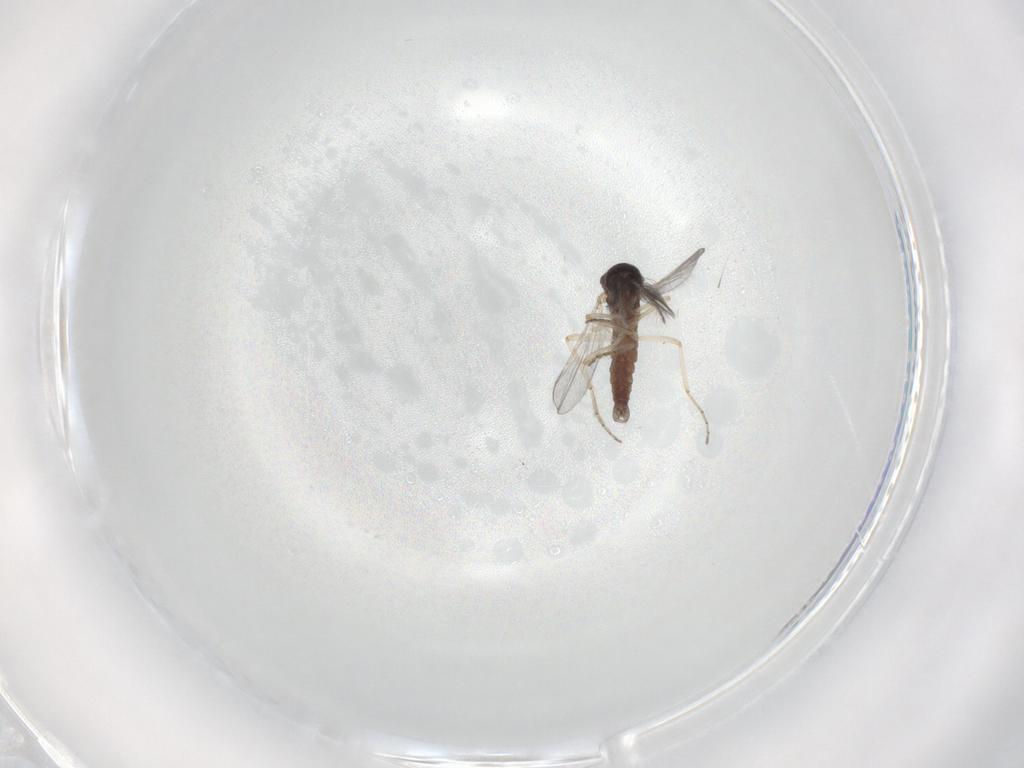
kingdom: Animalia
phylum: Arthropoda
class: Insecta
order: Diptera
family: Ceratopogonidae
